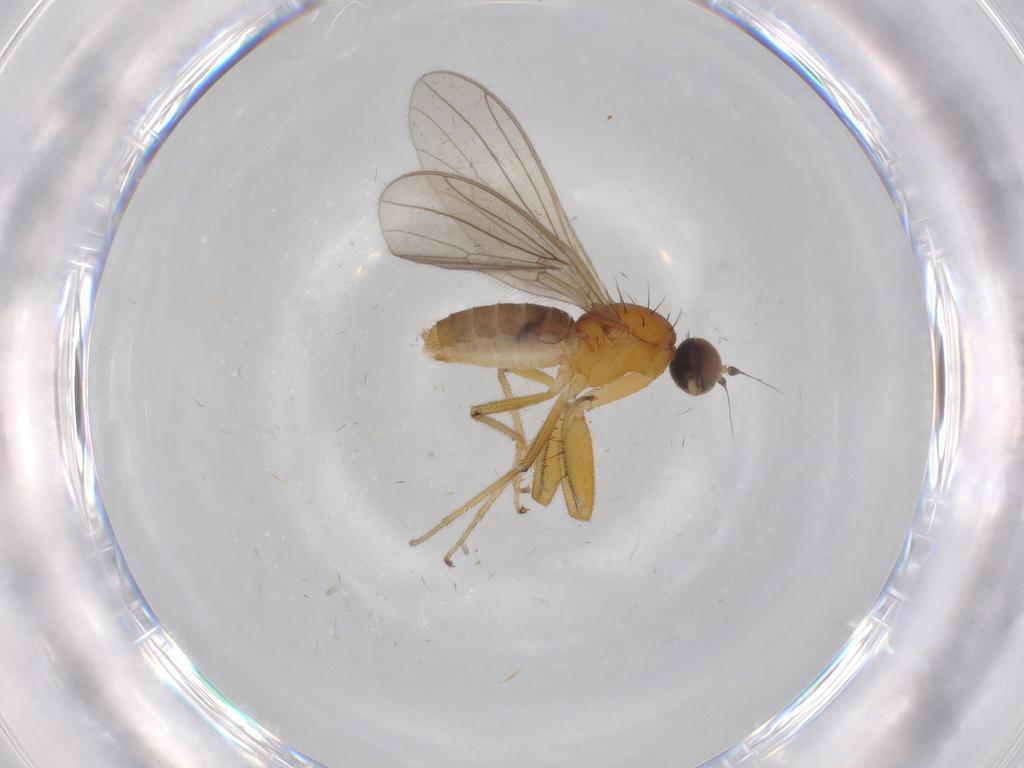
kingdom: Animalia
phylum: Arthropoda
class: Insecta
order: Diptera
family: Empididae
